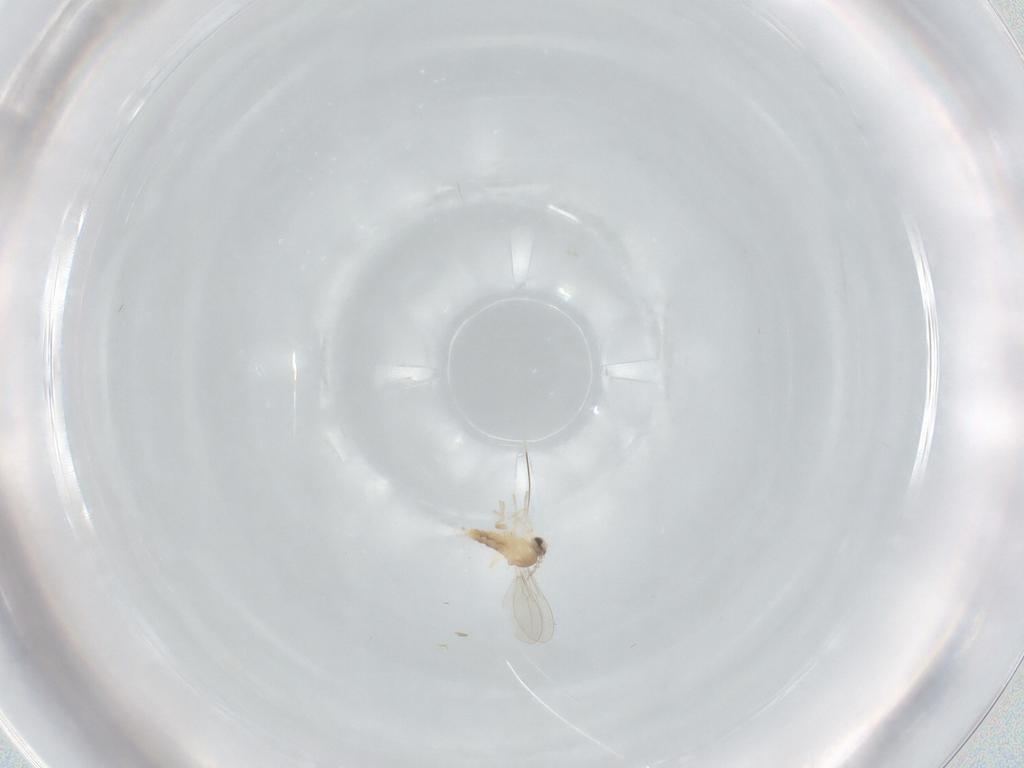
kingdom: Animalia
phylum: Arthropoda
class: Insecta
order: Diptera
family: Cecidomyiidae
